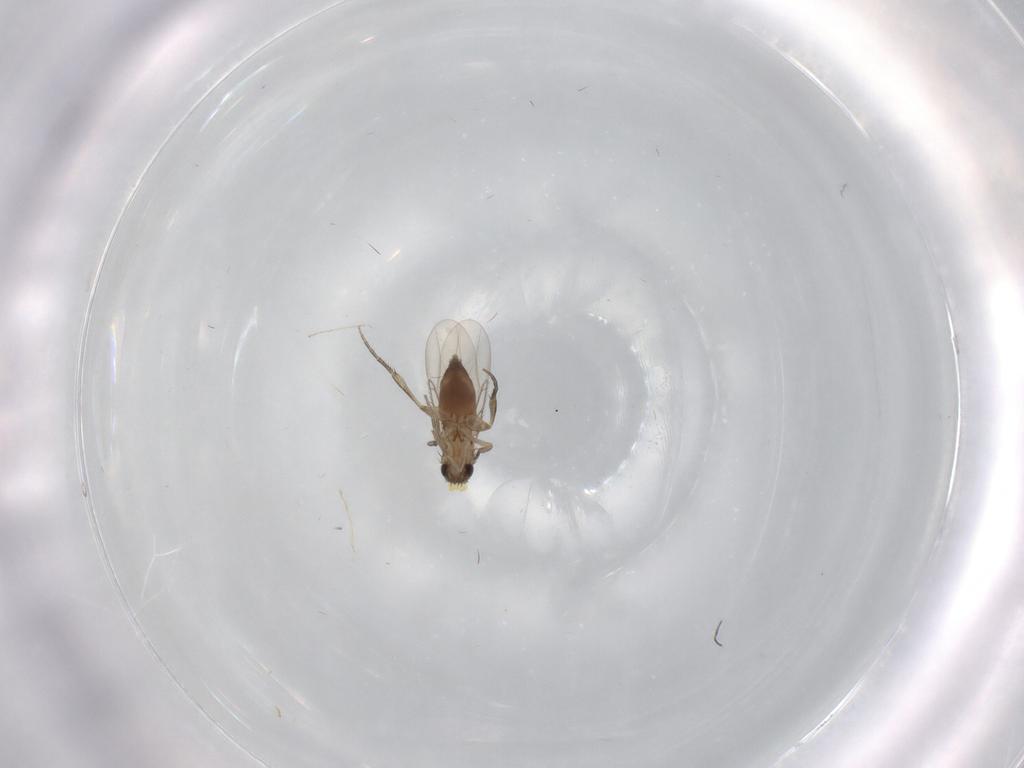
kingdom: Animalia
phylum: Arthropoda
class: Insecta
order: Diptera
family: Phoridae
